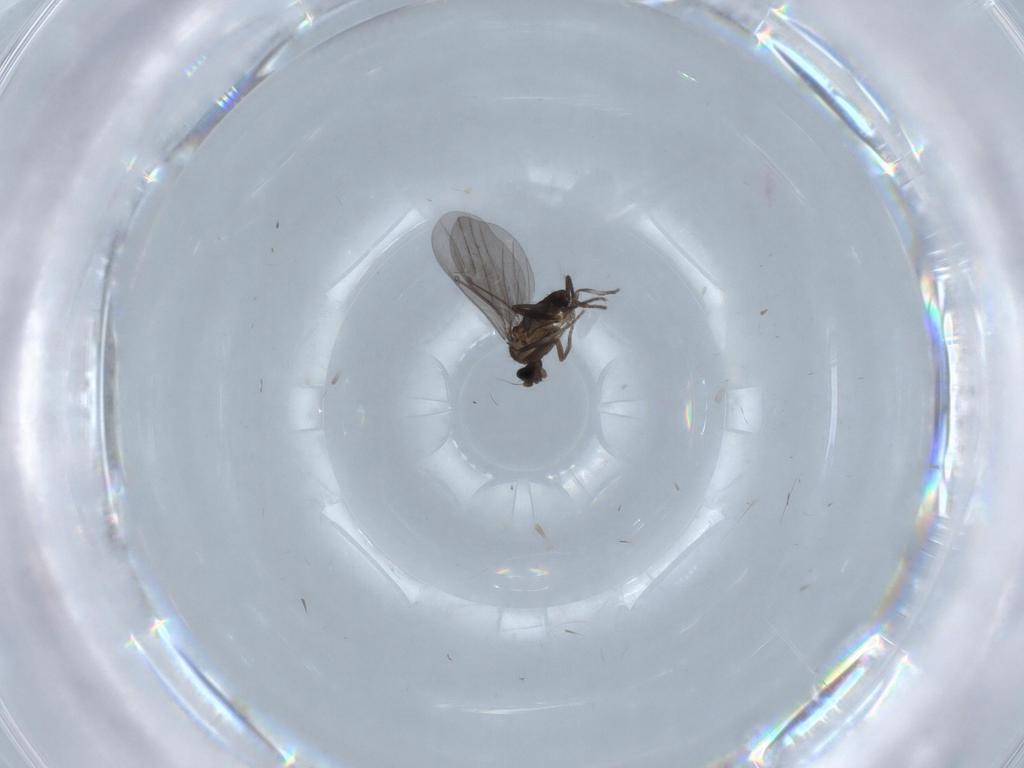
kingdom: Animalia
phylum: Arthropoda
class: Insecta
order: Diptera
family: Phoridae
